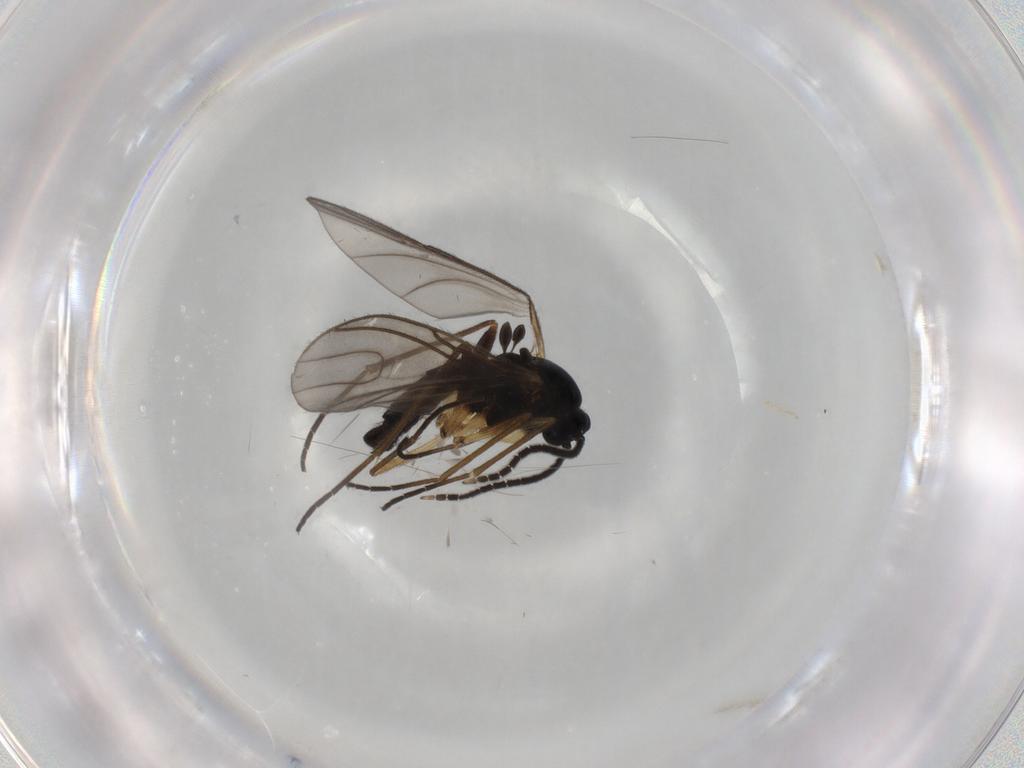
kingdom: Animalia
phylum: Arthropoda
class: Insecta
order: Diptera
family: Sciaridae
